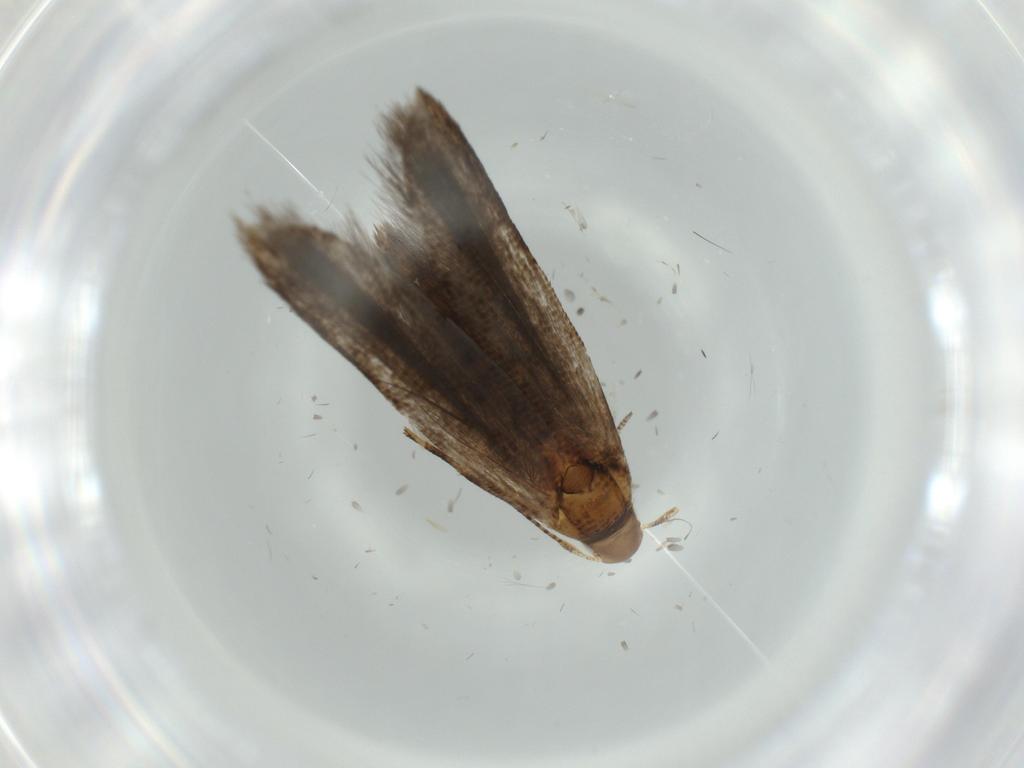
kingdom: Animalia
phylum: Arthropoda
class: Insecta
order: Lepidoptera
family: Gelechiidae
